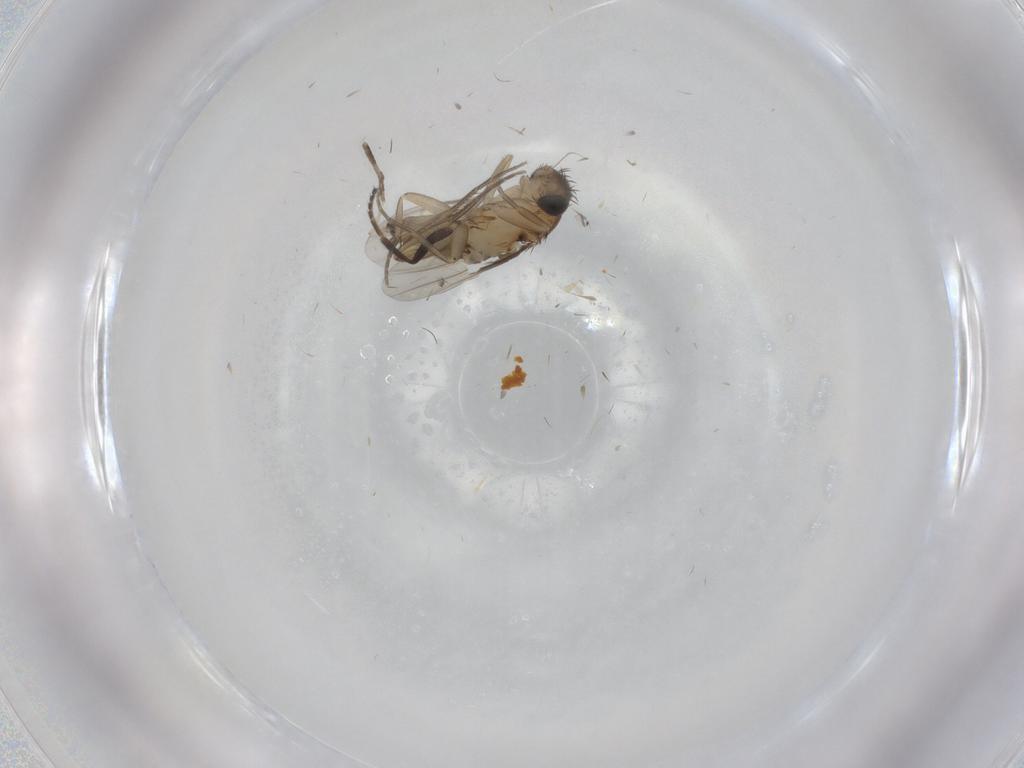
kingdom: Animalia
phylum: Arthropoda
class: Insecta
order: Diptera
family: Phoridae
